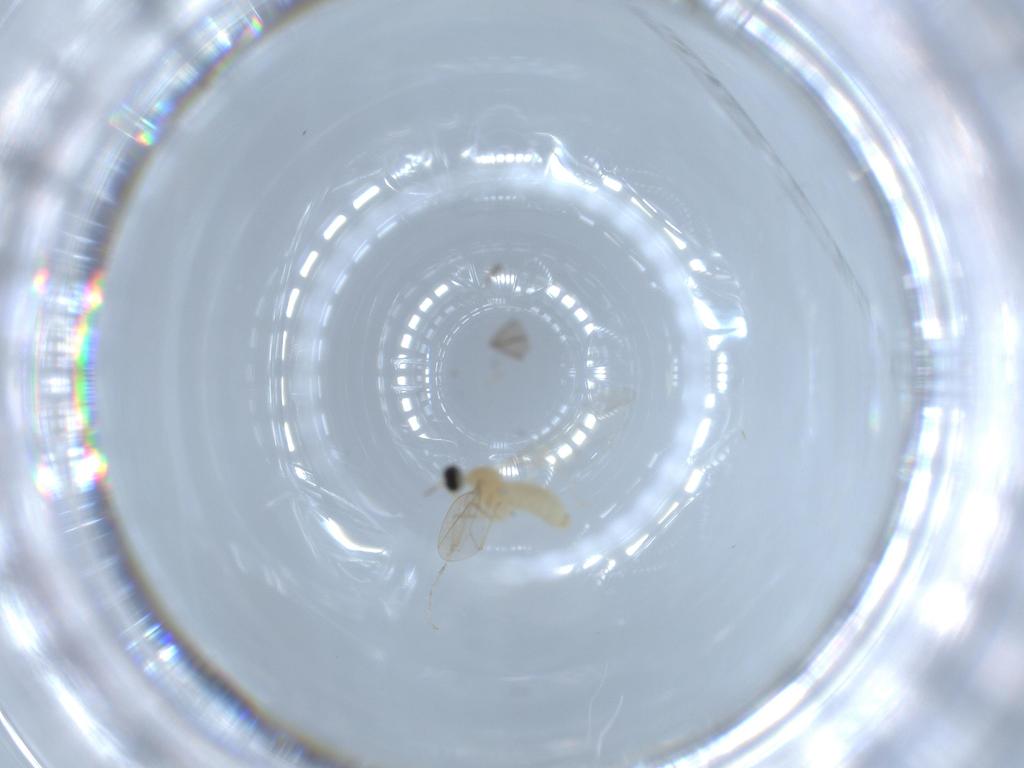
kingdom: Animalia
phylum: Arthropoda
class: Insecta
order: Diptera
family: Cecidomyiidae
